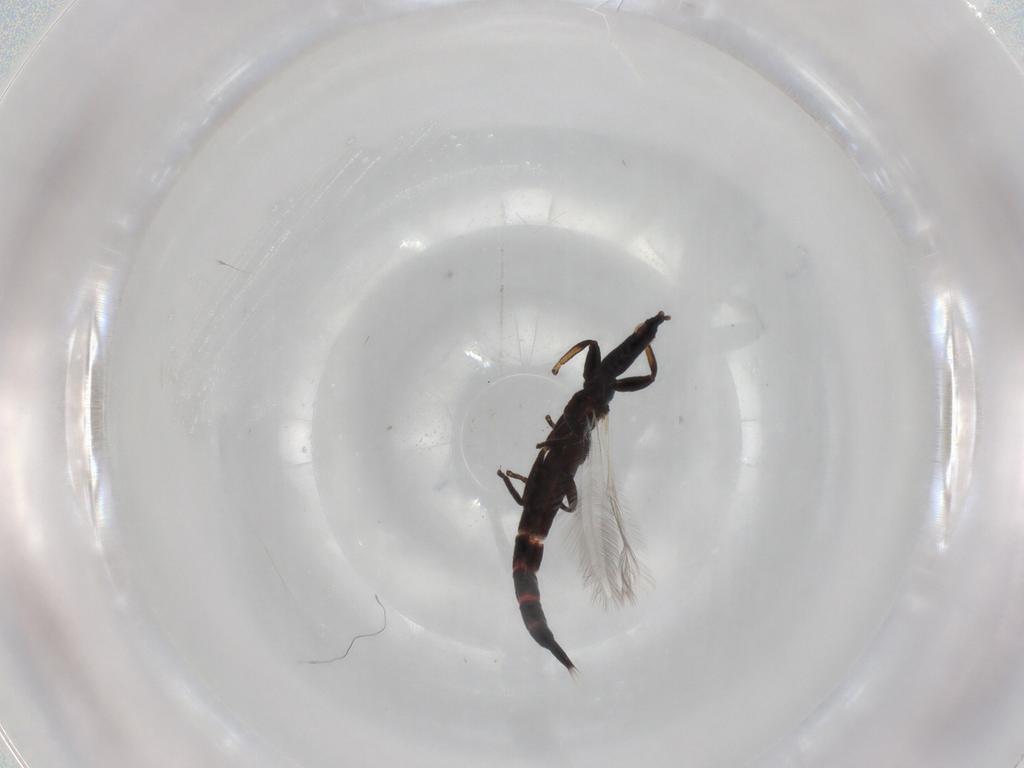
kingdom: Animalia
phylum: Arthropoda
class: Insecta
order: Thysanoptera
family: Phlaeothripidae
